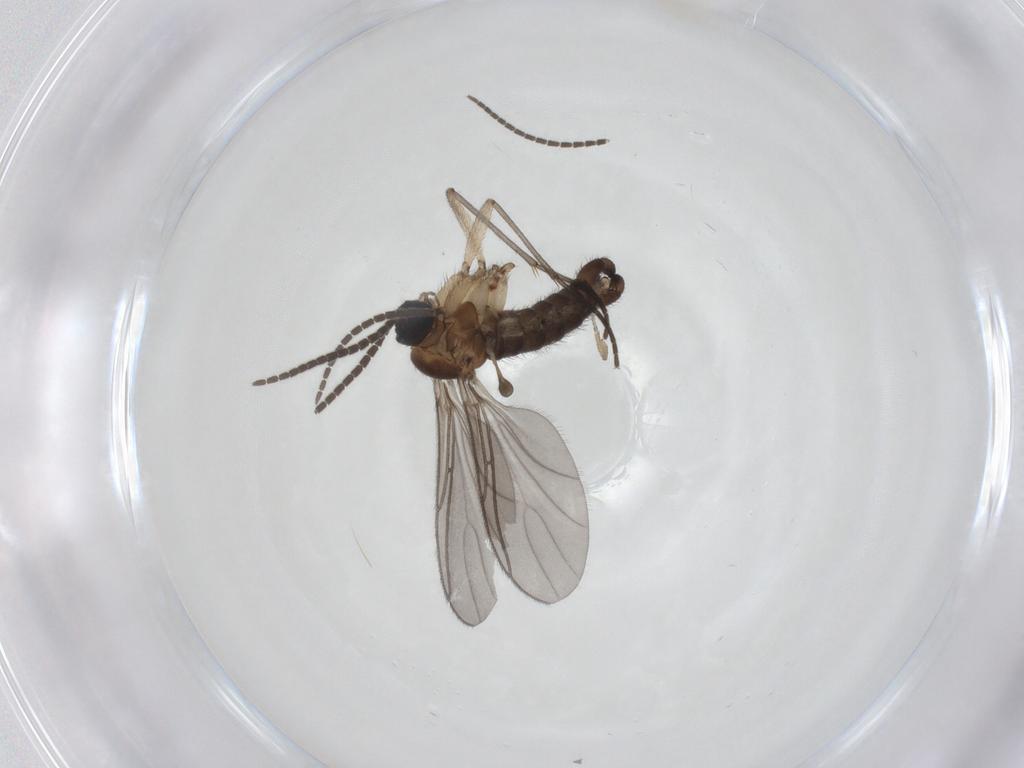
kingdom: Animalia
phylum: Arthropoda
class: Insecta
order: Diptera
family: Sciaridae
